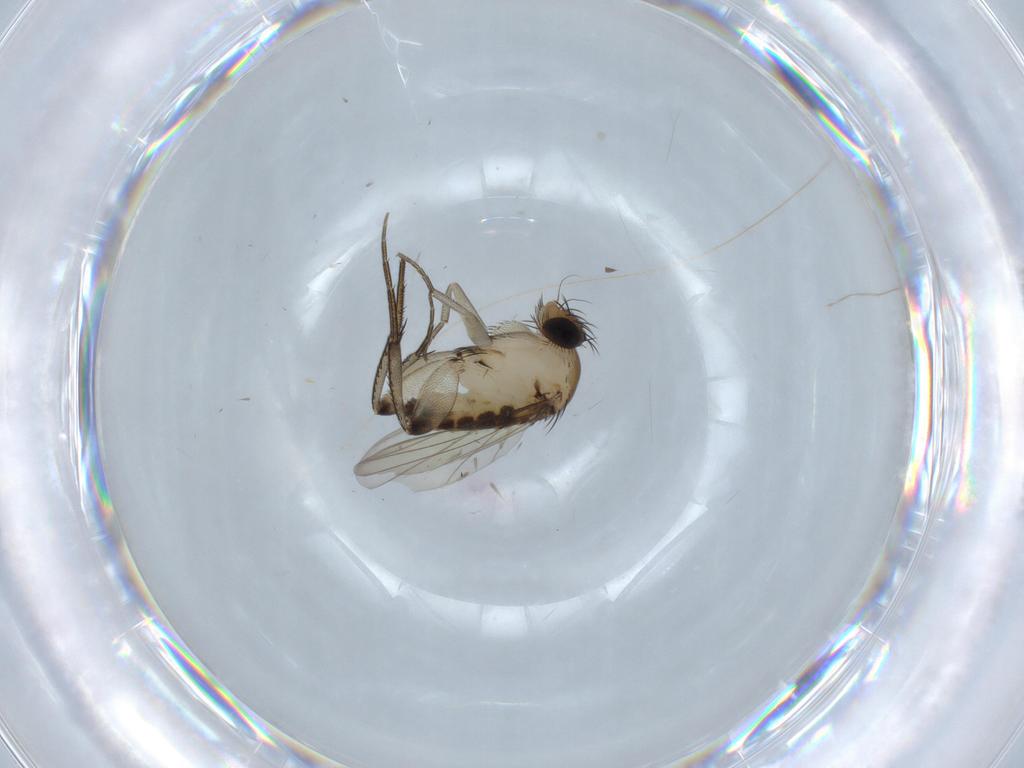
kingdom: Animalia
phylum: Arthropoda
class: Insecta
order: Diptera
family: Phoridae
